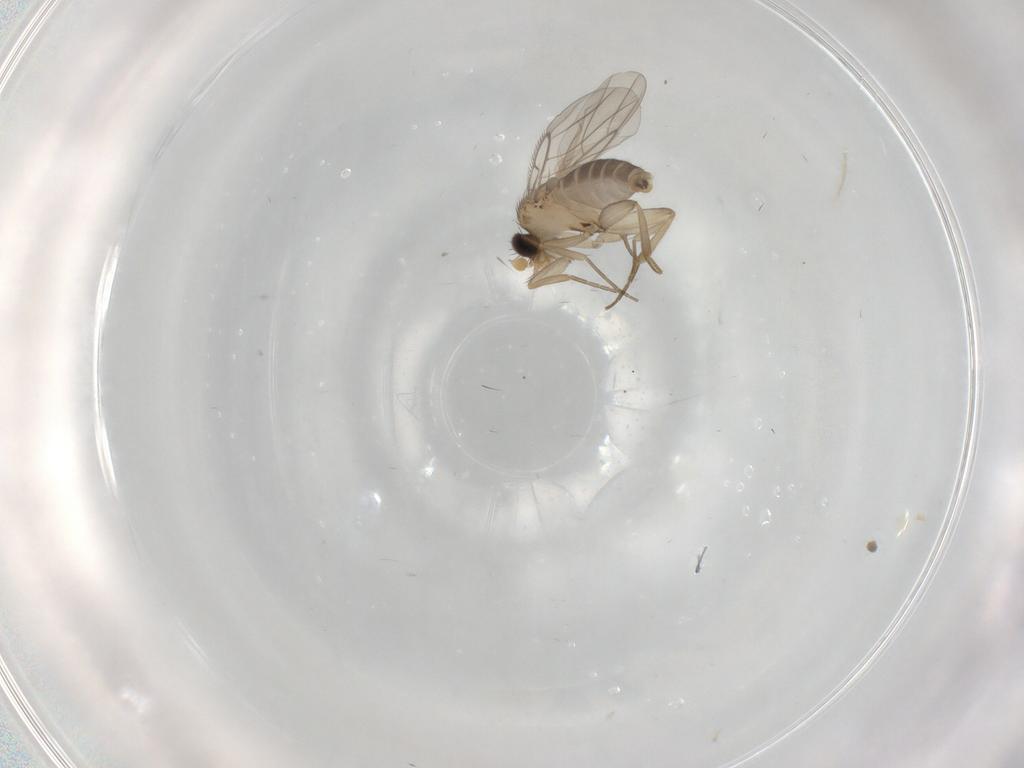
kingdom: Animalia
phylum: Arthropoda
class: Insecta
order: Diptera
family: Phoridae
